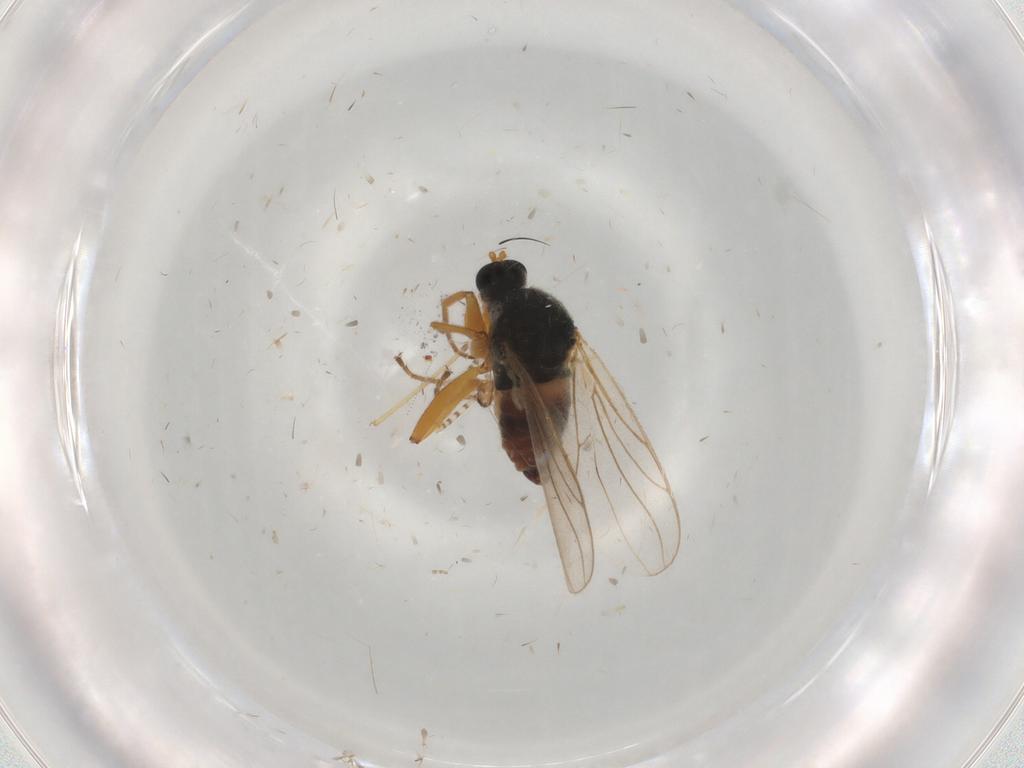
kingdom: Animalia
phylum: Arthropoda
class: Insecta
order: Diptera
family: Hybotidae
